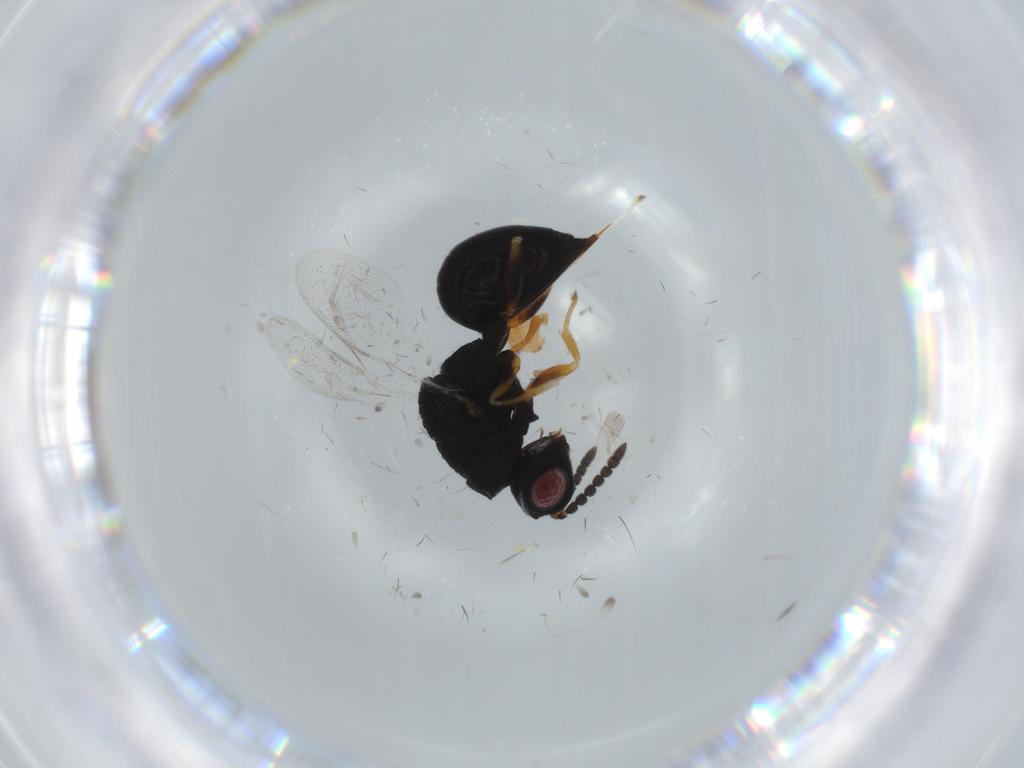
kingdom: Animalia
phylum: Arthropoda
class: Insecta
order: Hymenoptera
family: Eurytomidae
